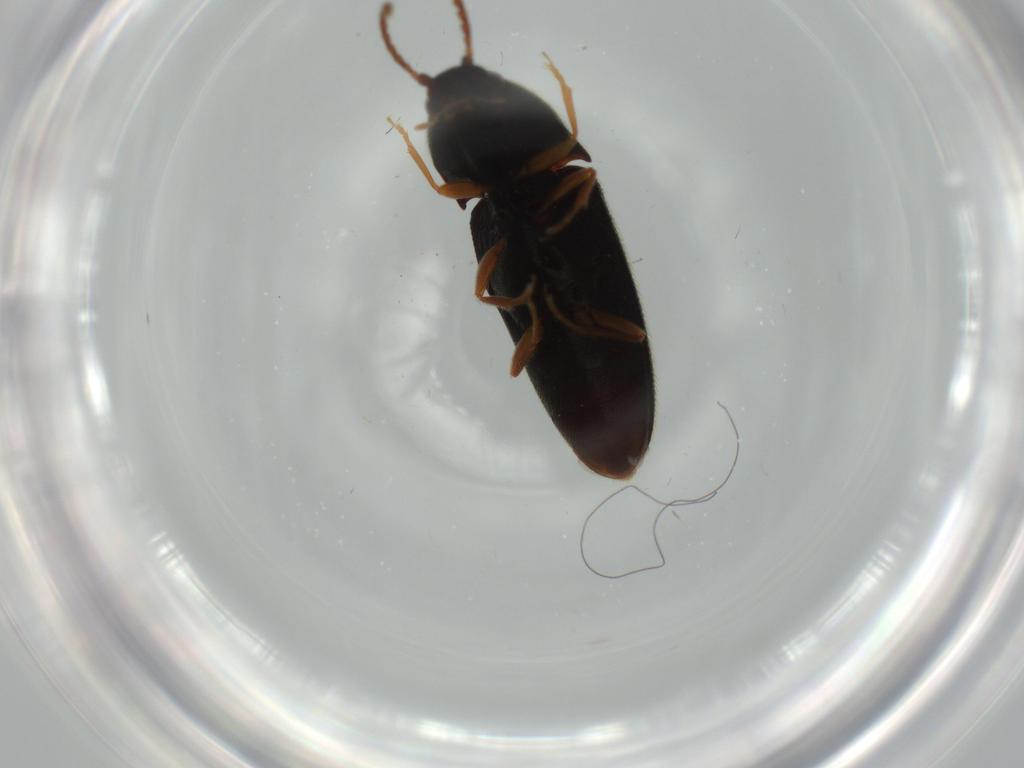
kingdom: Animalia
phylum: Arthropoda
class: Insecta
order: Coleoptera
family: Elateridae
